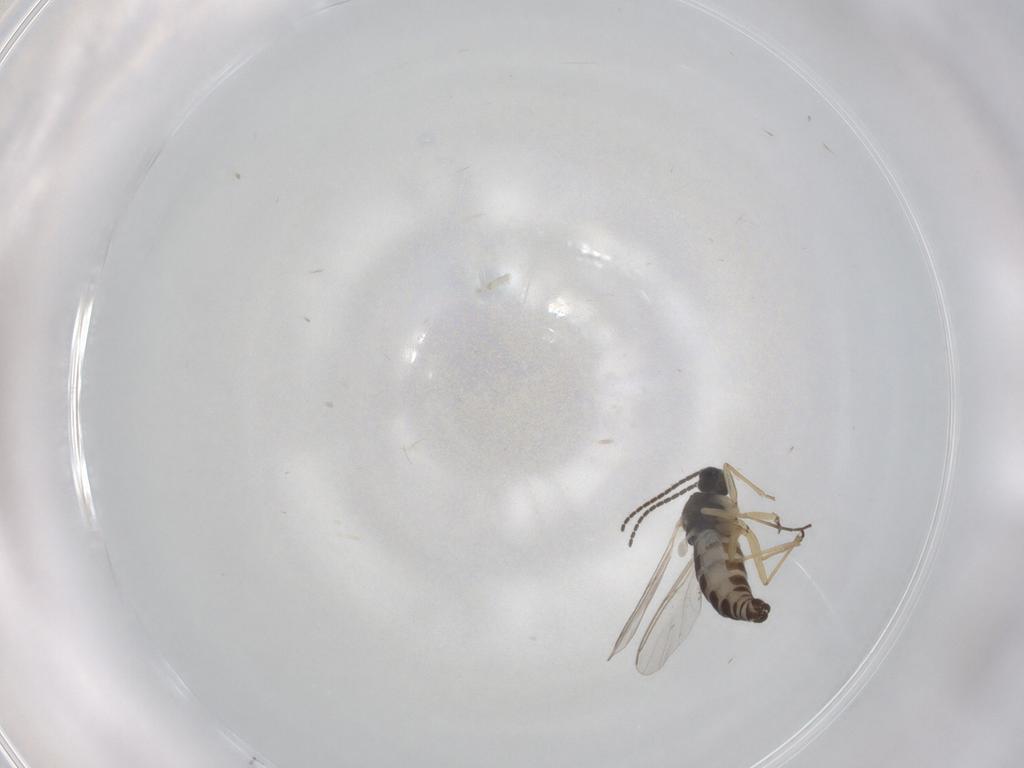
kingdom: Animalia
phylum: Arthropoda
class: Insecta
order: Diptera
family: Sciaridae
